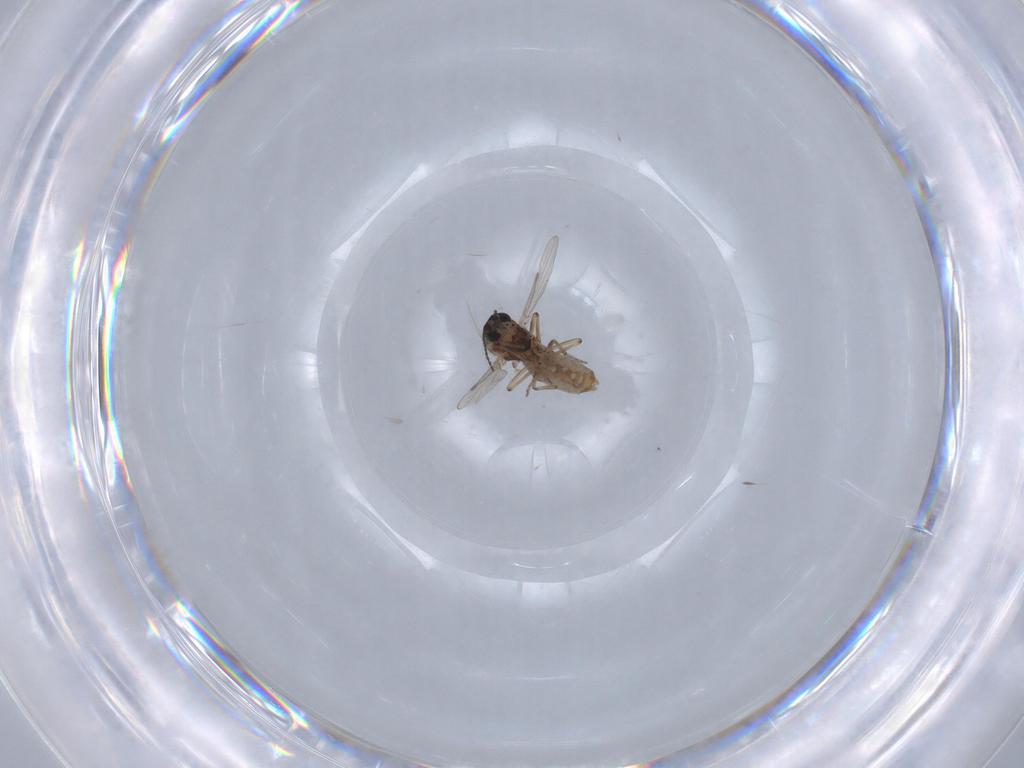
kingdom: Animalia
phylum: Arthropoda
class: Insecta
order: Diptera
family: Ceratopogonidae
